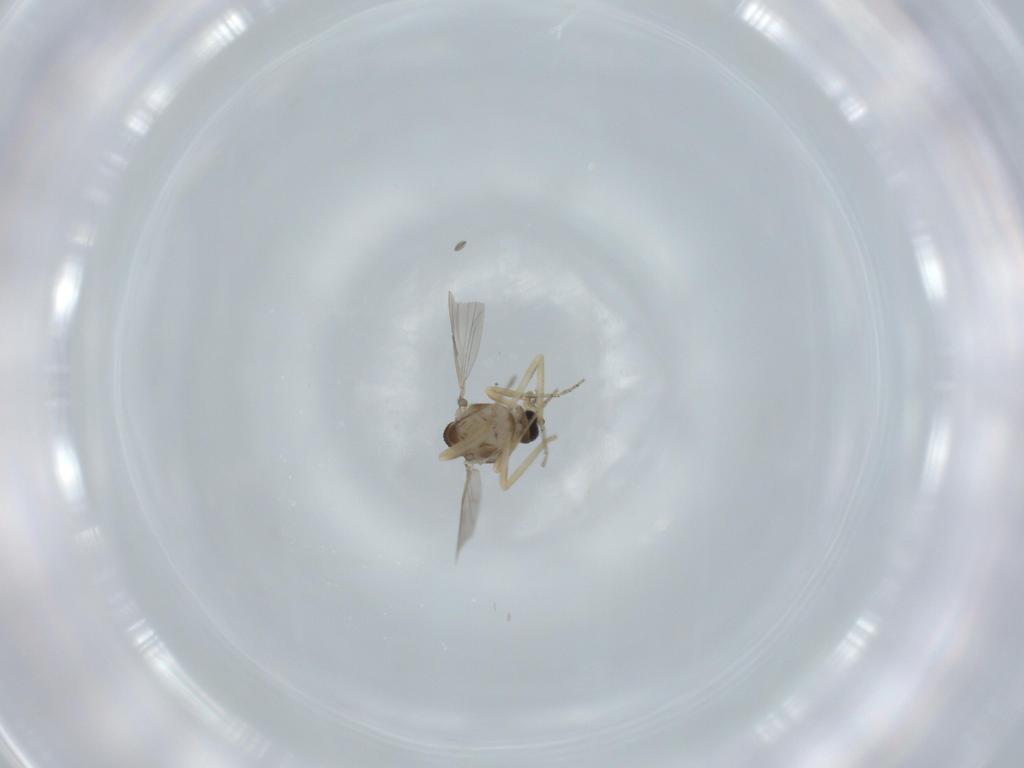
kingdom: Animalia
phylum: Arthropoda
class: Insecta
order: Diptera
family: Ceratopogonidae
